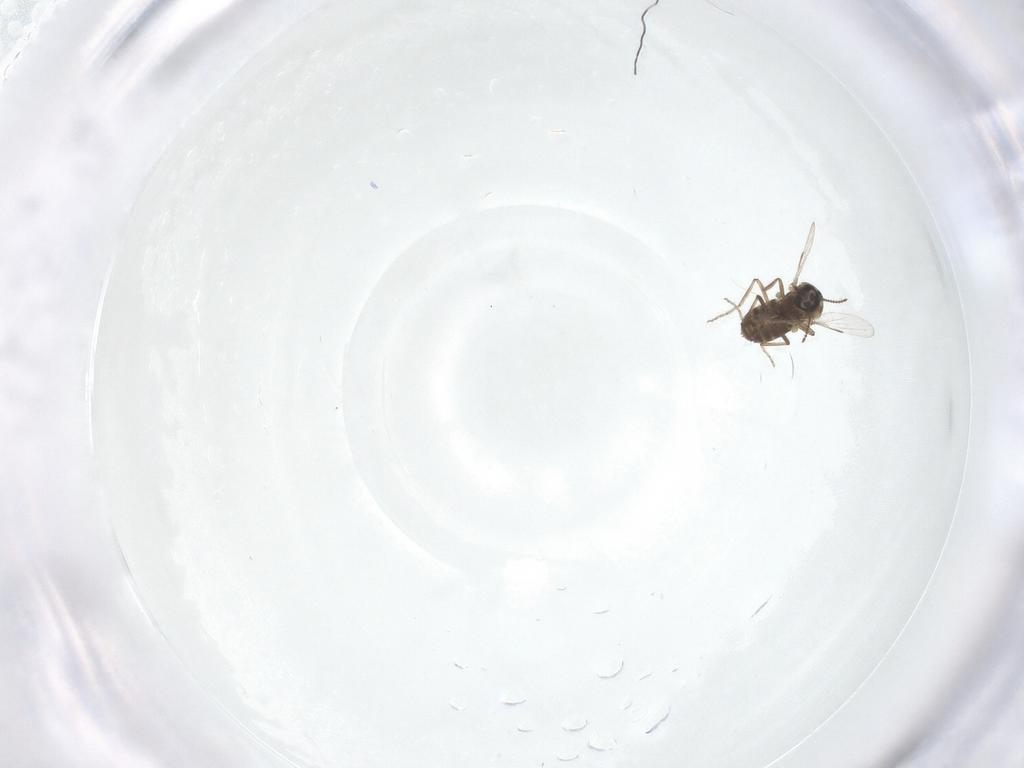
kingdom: Animalia
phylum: Arthropoda
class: Insecta
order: Diptera
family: Ceratopogonidae
